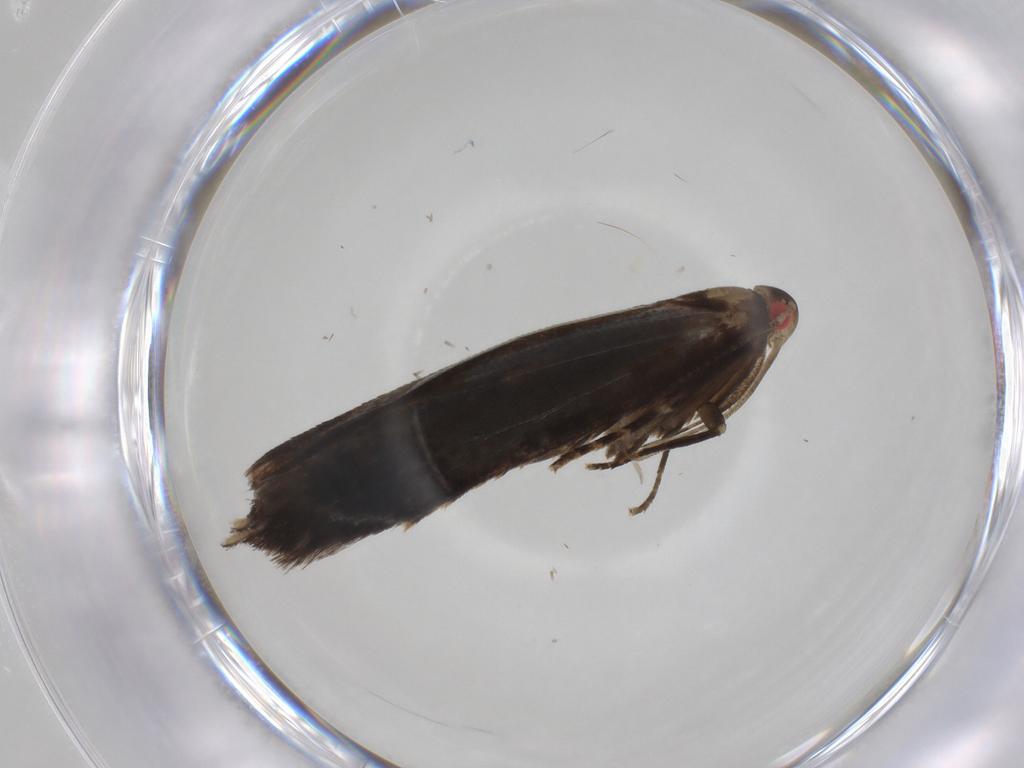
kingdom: Animalia
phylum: Arthropoda
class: Insecta
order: Lepidoptera
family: Gelechiidae
